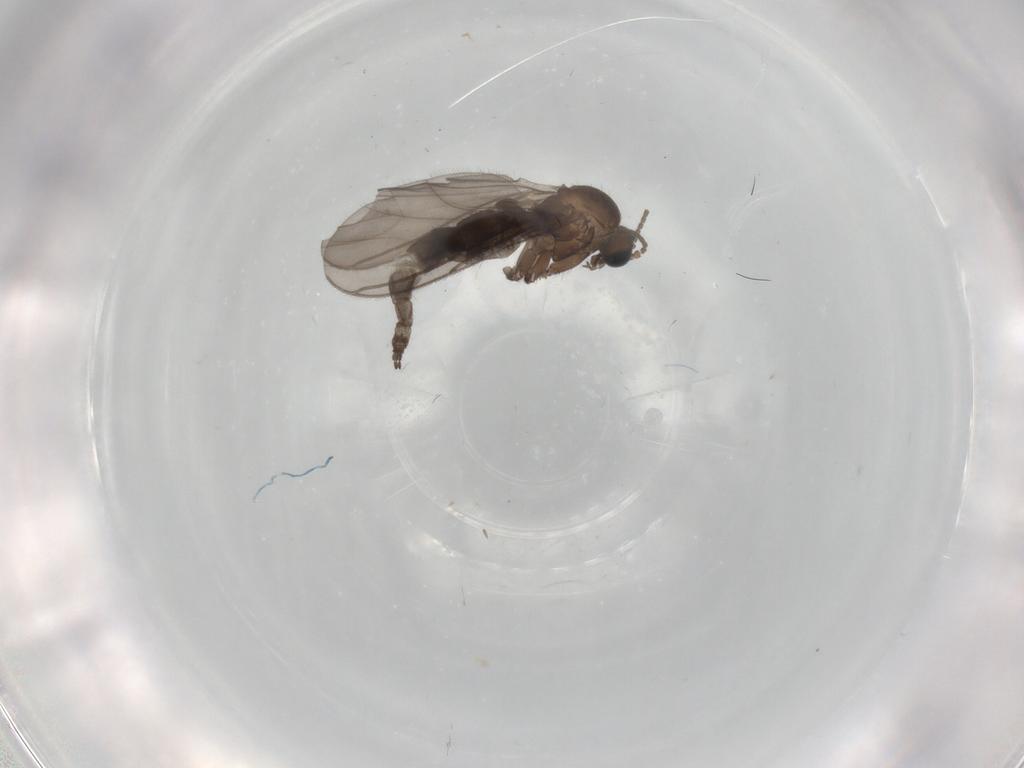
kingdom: Animalia
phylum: Arthropoda
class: Insecta
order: Diptera
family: Sciaridae
